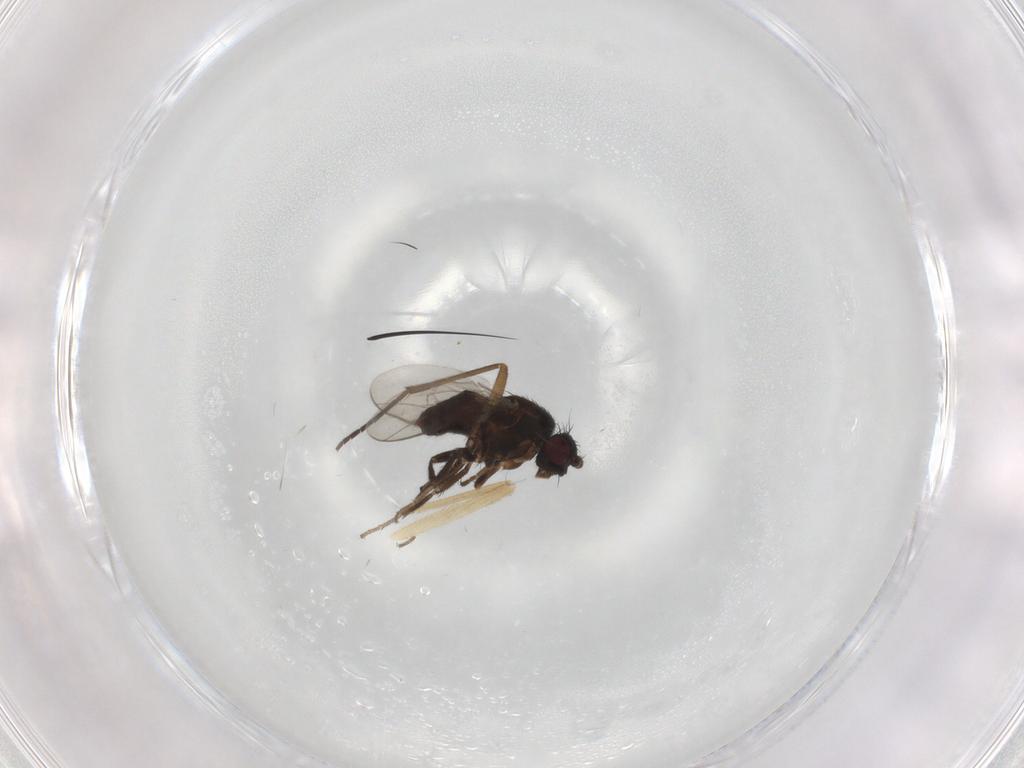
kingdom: Animalia
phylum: Arthropoda
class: Insecta
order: Diptera
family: Sphaeroceridae
